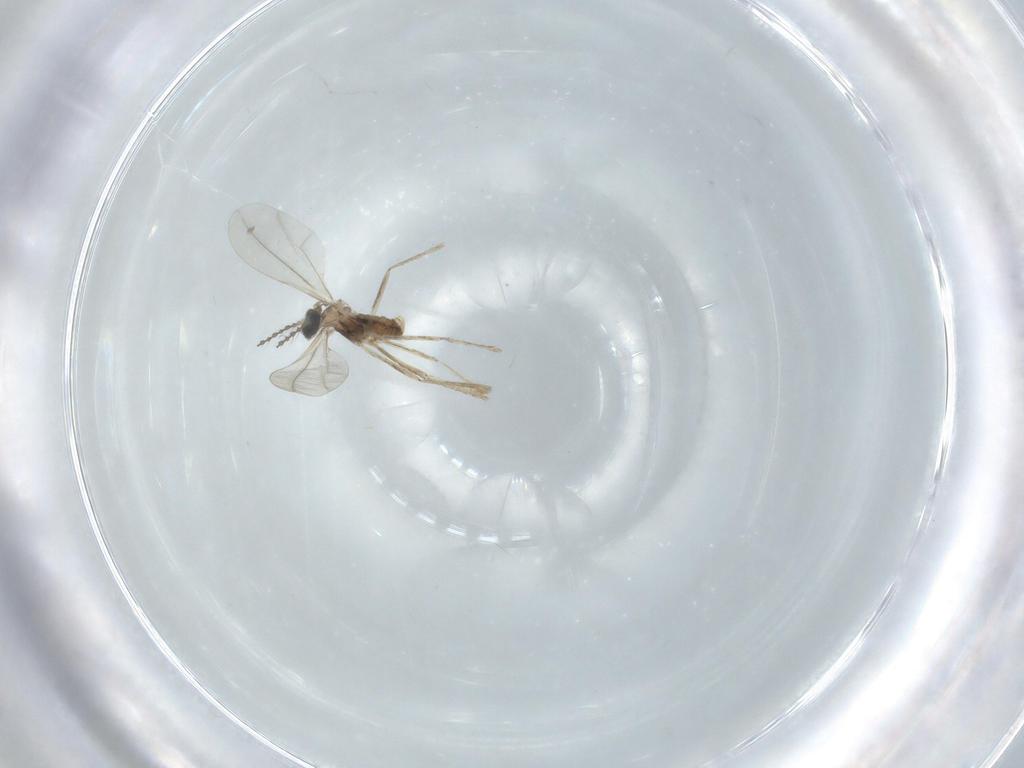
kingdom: Animalia
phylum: Arthropoda
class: Insecta
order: Diptera
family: Cecidomyiidae
